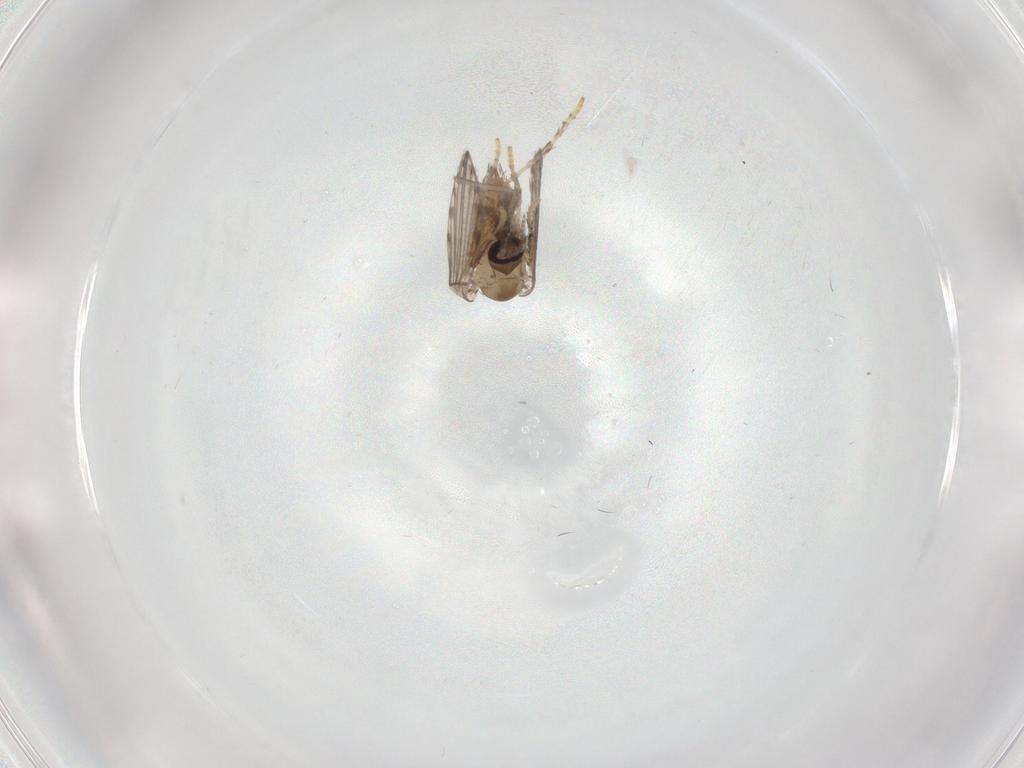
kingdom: Animalia
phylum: Arthropoda
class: Insecta
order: Diptera
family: Psychodidae
